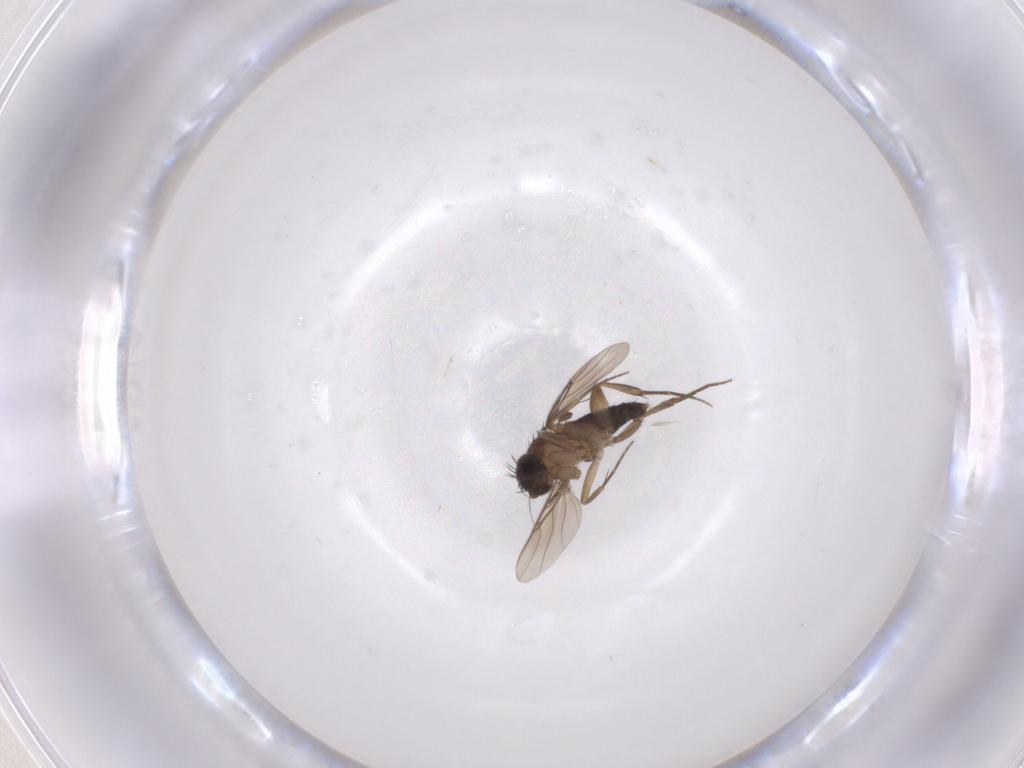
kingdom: Animalia
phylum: Arthropoda
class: Insecta
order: Diptera
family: Phoridae
